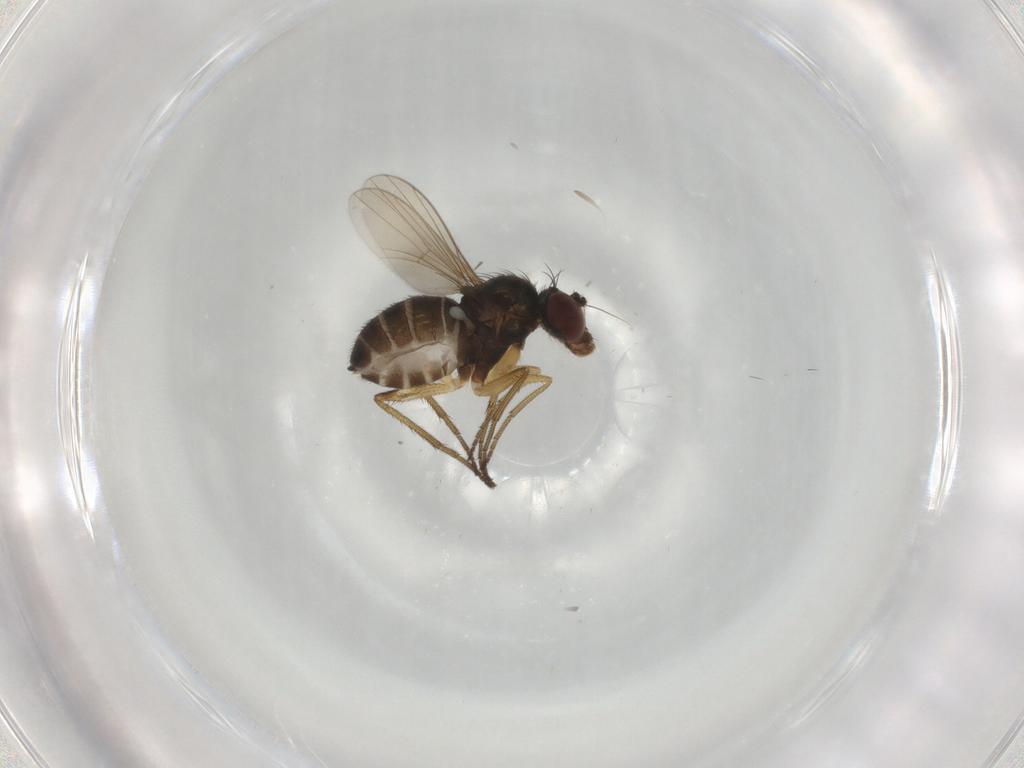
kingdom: Animalia
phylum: Arthropoda
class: Insecta
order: Diptera
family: Dolichopodidae
